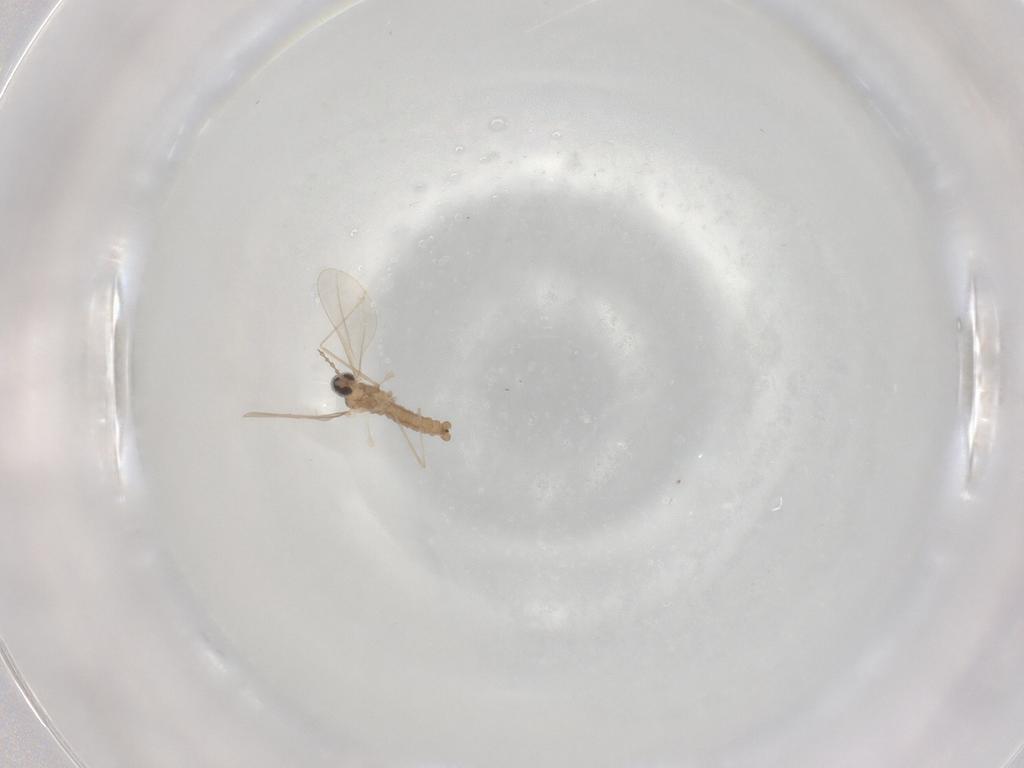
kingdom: Animalia
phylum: Arthropoda
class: Insecta
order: Diptera
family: Cecidomyiidae
